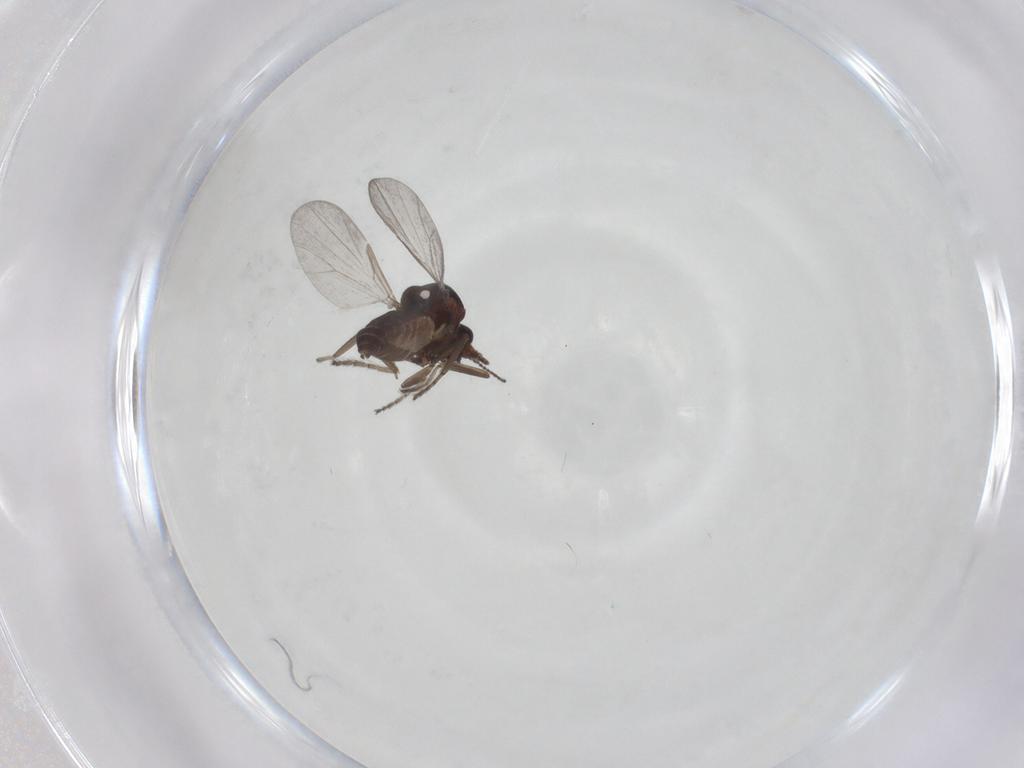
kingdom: Animalia
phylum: Arthropoda
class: Insecta
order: Diptera
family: Ceratopogonidae
